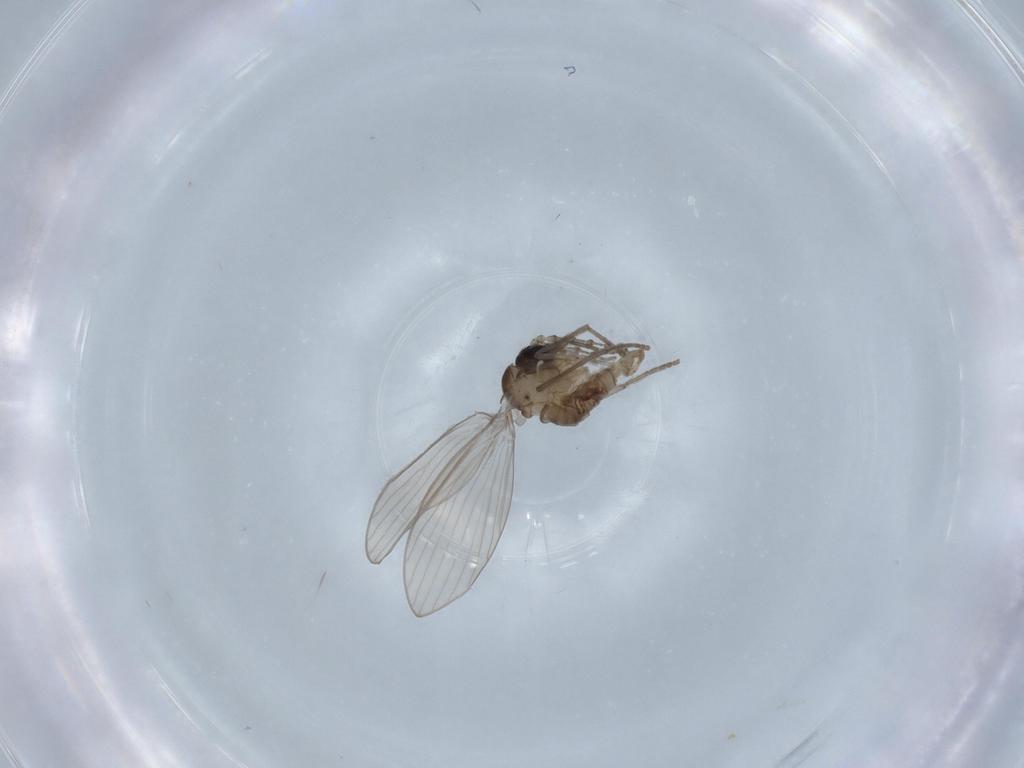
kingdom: Animalia
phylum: Arthropoda
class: Insecta
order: Diptera
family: Psychodidae
